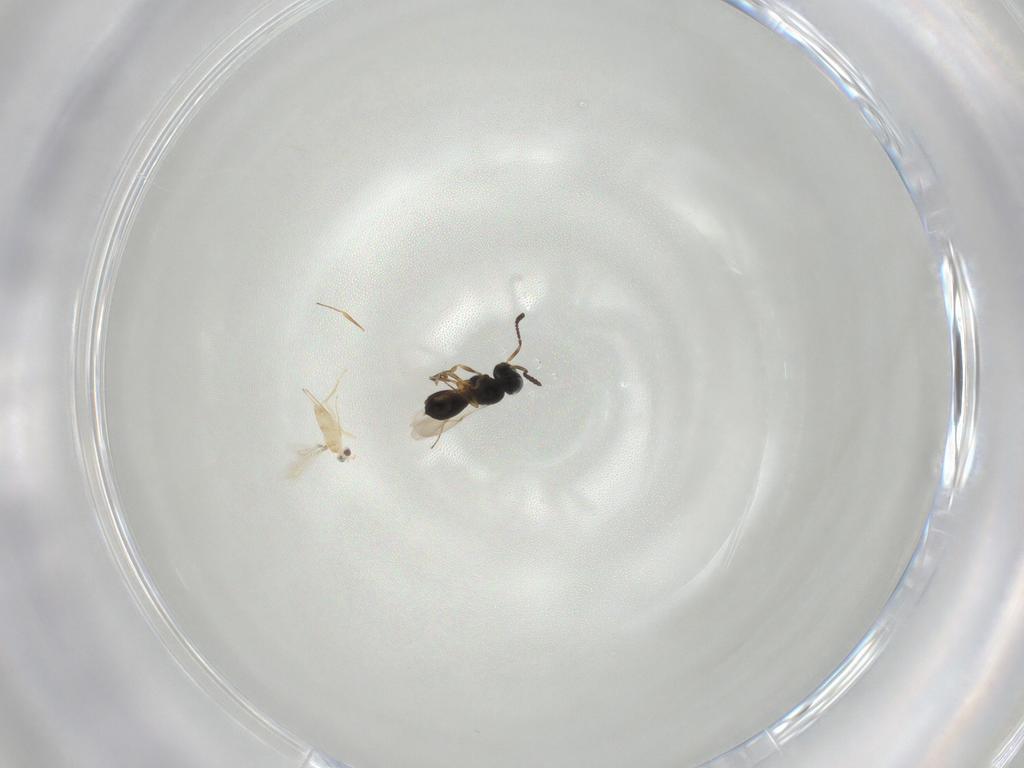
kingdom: Animalia
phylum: Arthropoda
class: Insecta
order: Hymenoptera
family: Scelionidae
